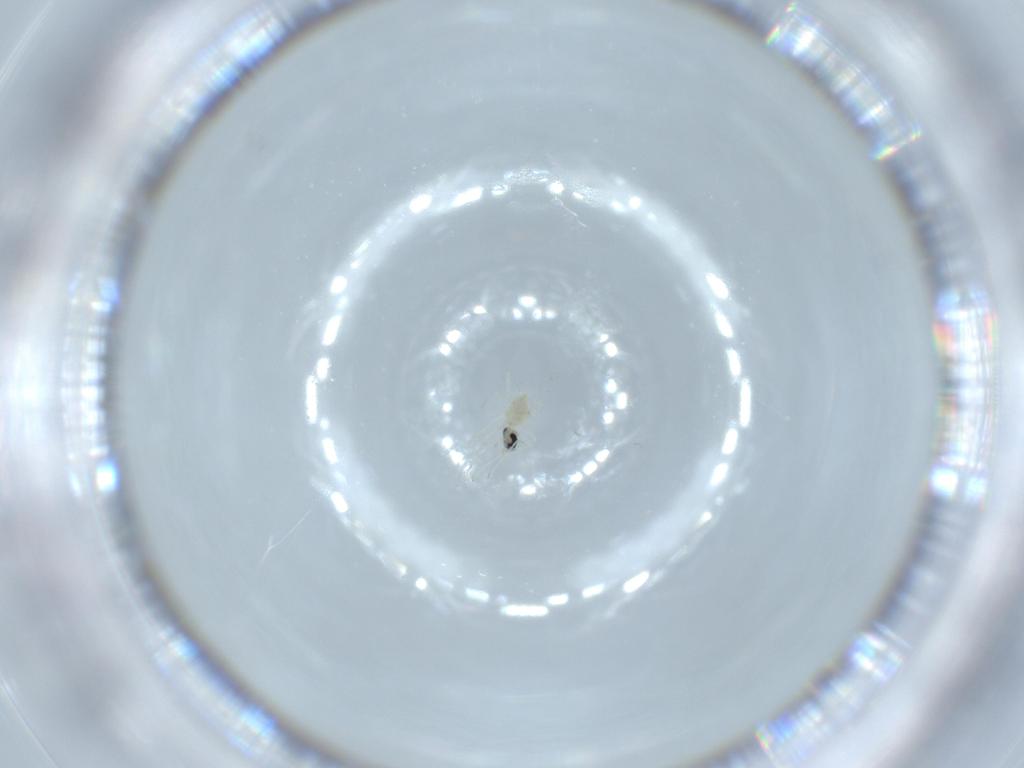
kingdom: Animalia
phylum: Arthropoda
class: Insecta
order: Diptera
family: Cecidomyiidae
